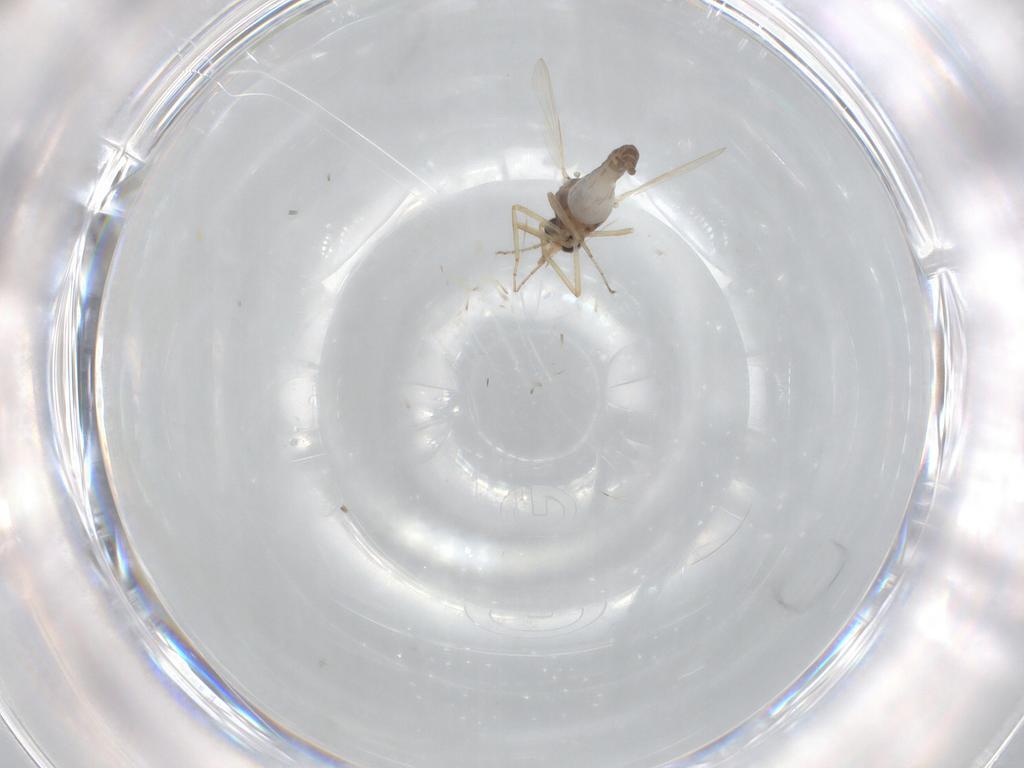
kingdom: Animalia
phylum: Arthropoda
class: Insecta
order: Diptera
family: Ceratopogonidae
